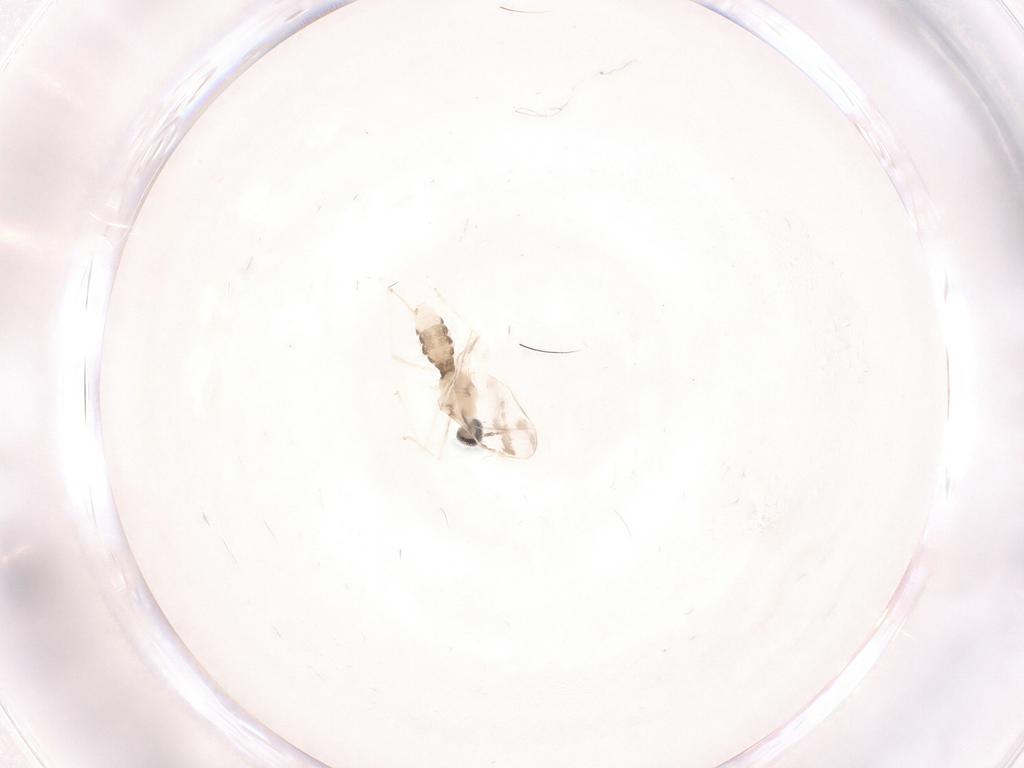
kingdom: Animalia
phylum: Arthropoda
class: Insecta
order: Diptera
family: Cecidomyiidae
